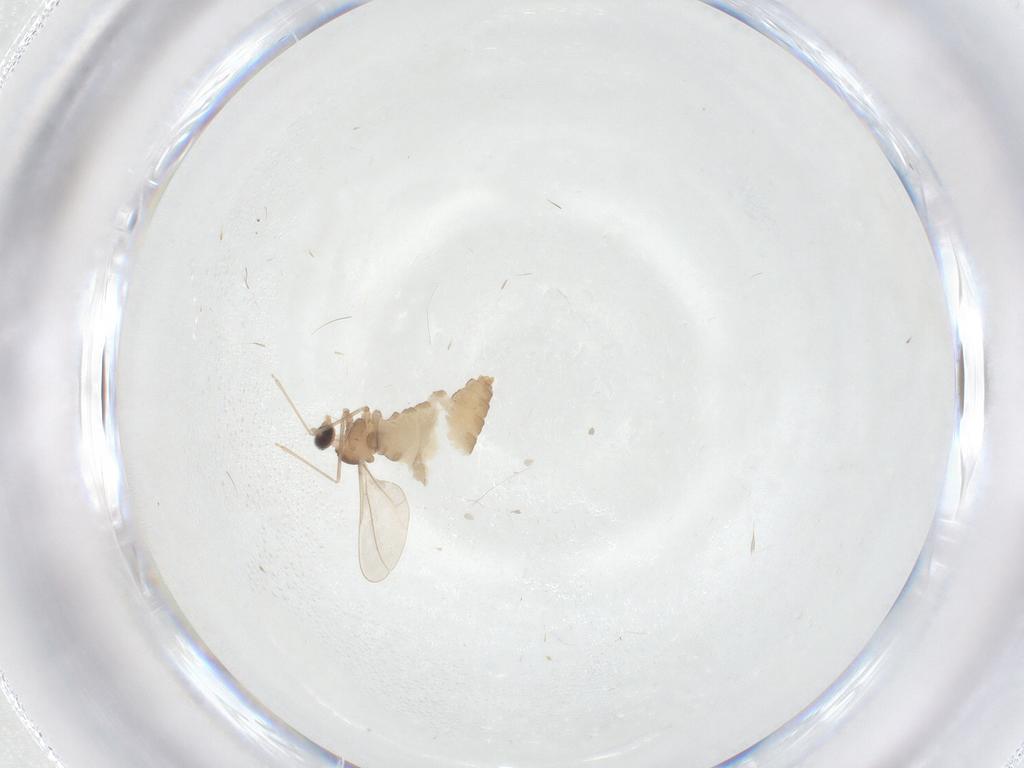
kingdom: Animalia
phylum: Arthropoda
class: Insecta
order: Diptera
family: Cecidomyiidae
